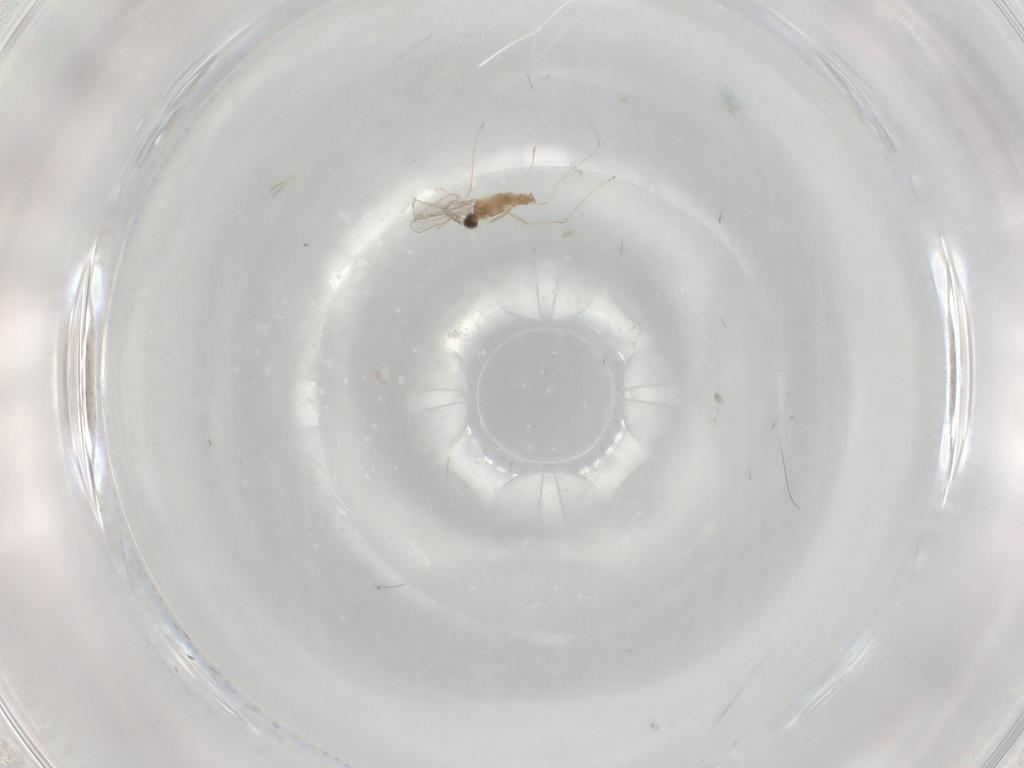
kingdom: Animalia
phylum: Arthropoda
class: Insecta
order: Diptera
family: Cecidomyiidae
